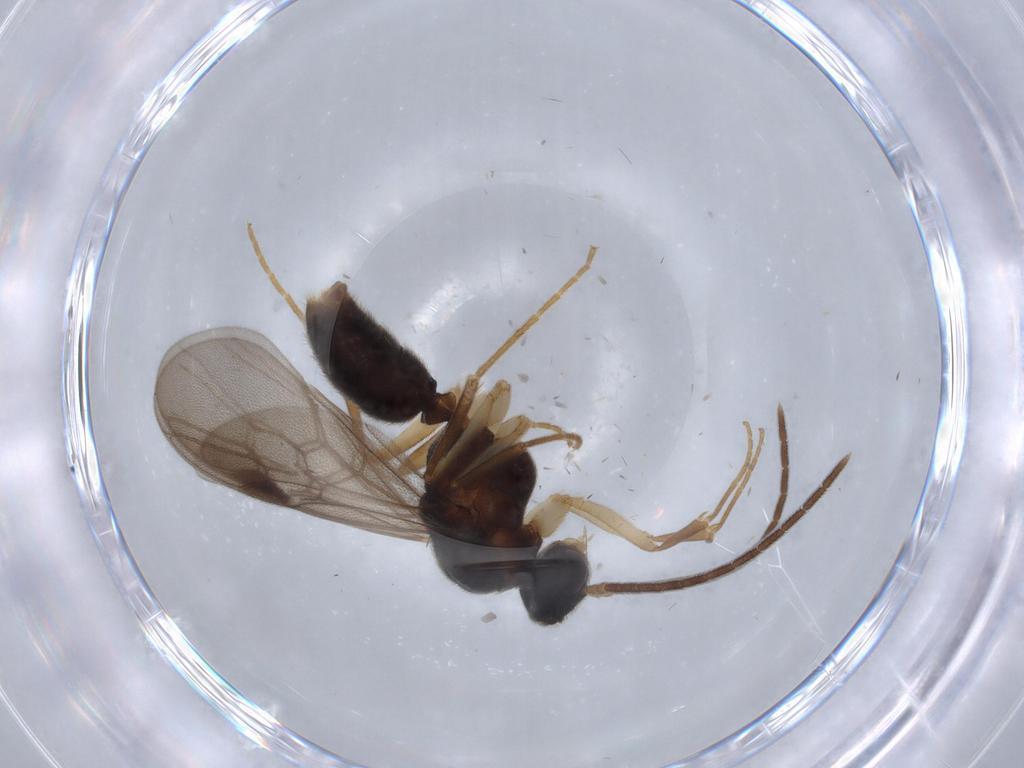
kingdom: Animalia
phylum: Arthropoda
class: Insecta
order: Hymenoptera
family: Formicidae
